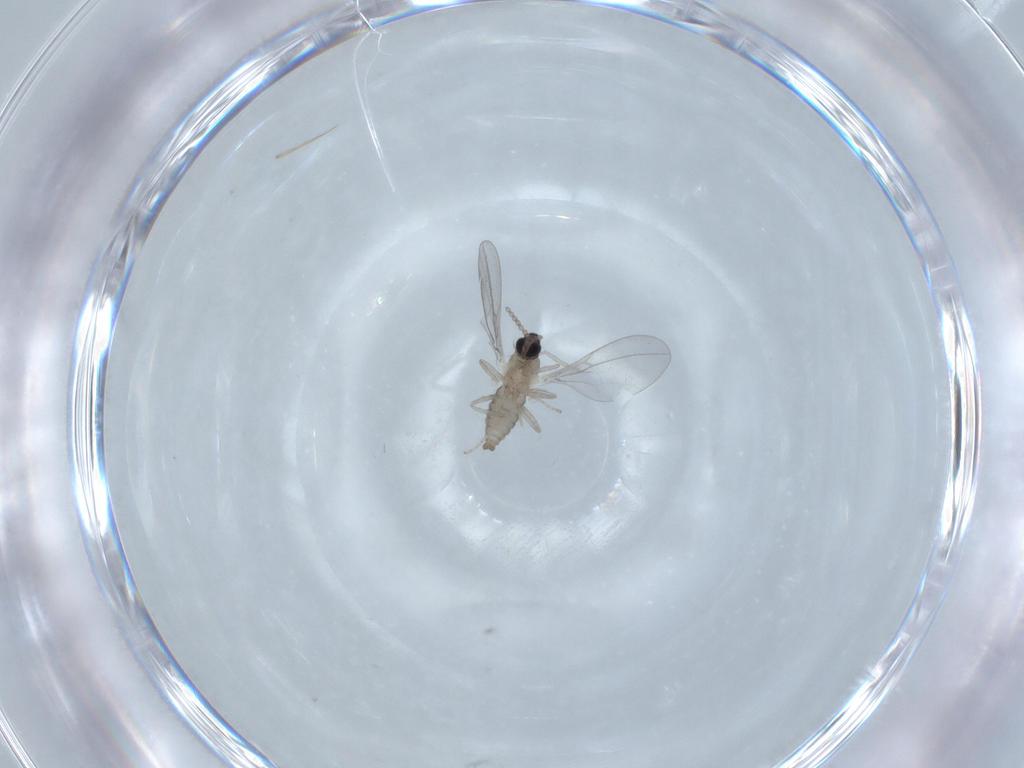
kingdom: Animalia
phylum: Arthropoda
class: Insecta
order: Diptera
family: Cecidomyiidae
